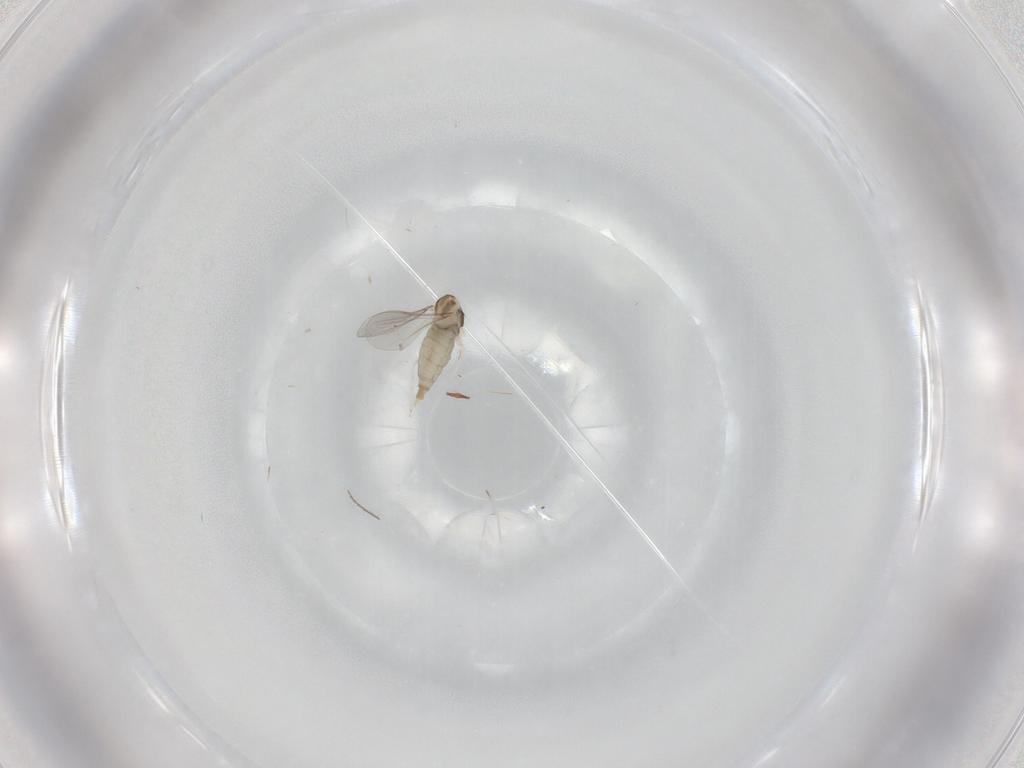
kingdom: Animalia
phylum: Arthropoda
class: Insecta
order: Diptera
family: Cecidomyiidae
